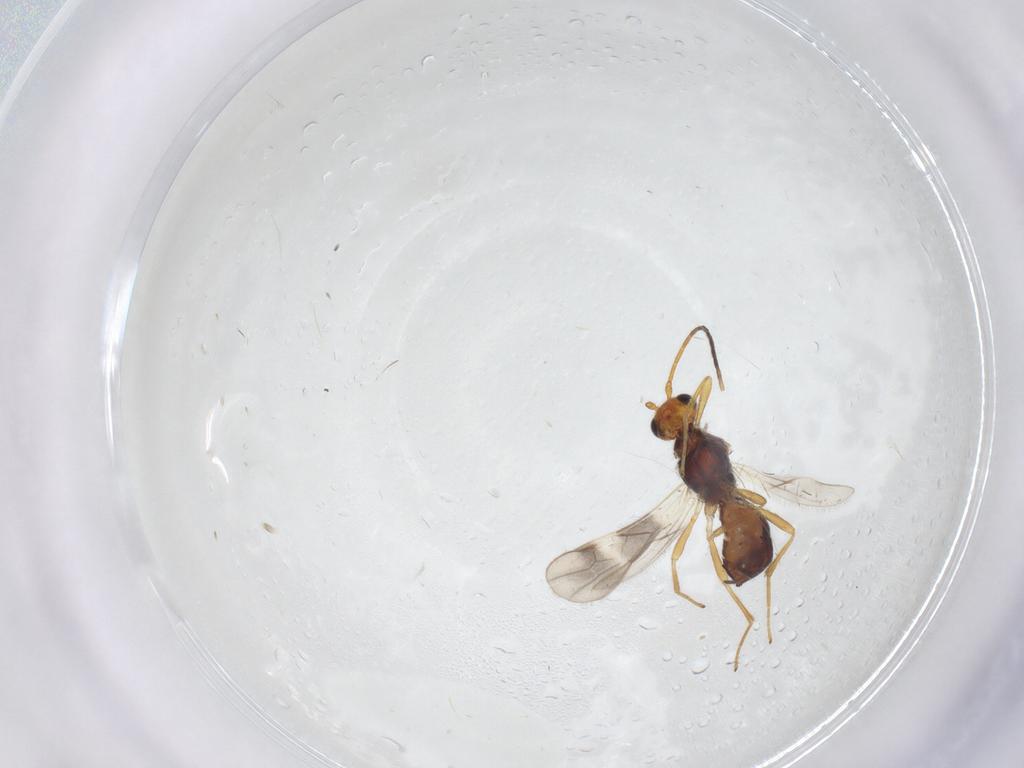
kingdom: Animalia
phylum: Arthropoda
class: Insecta
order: Hymenoptera
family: Braconidae
